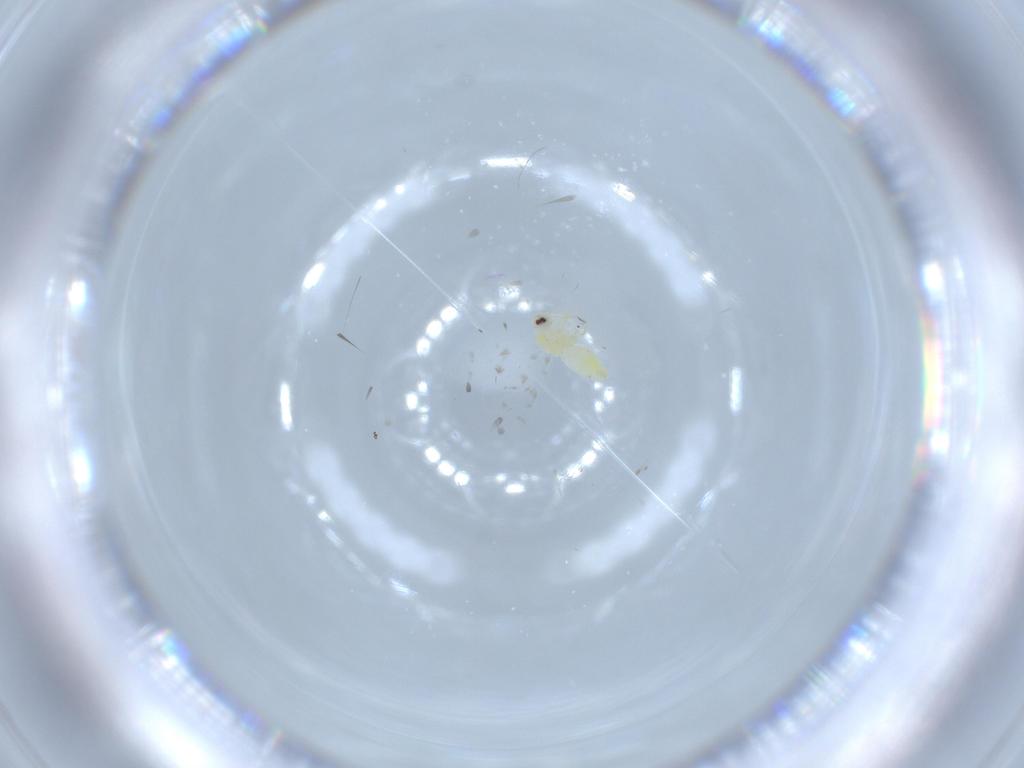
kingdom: Animalia
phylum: Arthropoda
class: Insecta
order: Hemiptera
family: Aleyrodidae
